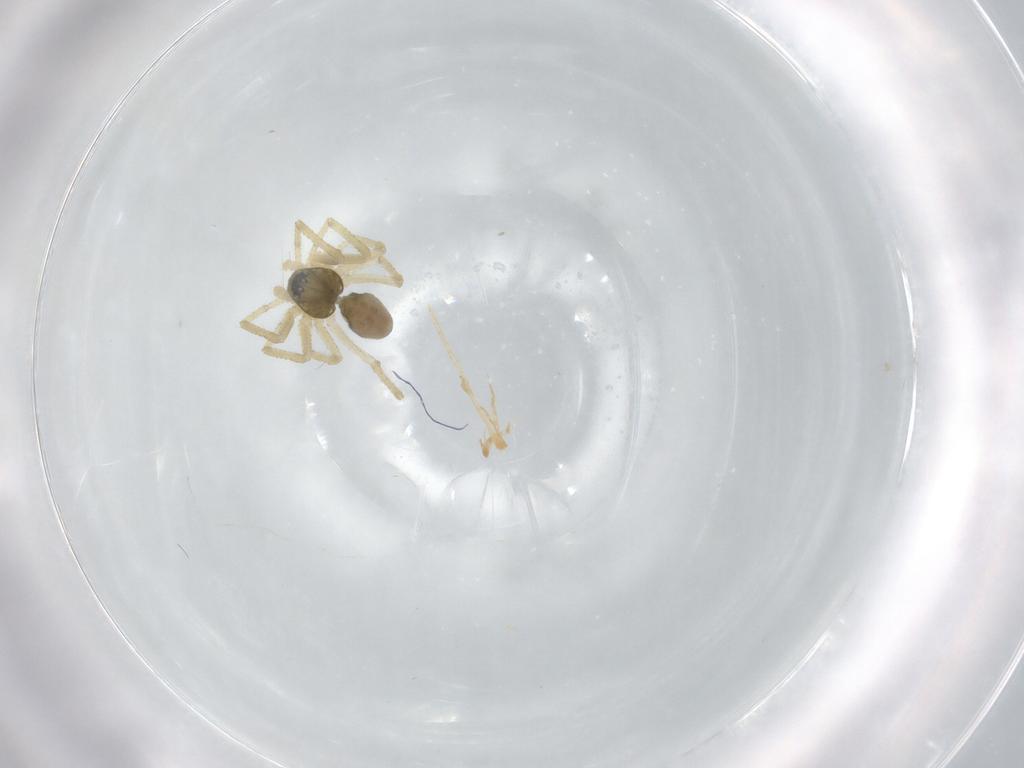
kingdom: Animalia
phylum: Arthropoda
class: Arachnida
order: Araneae
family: Linyphiidae
